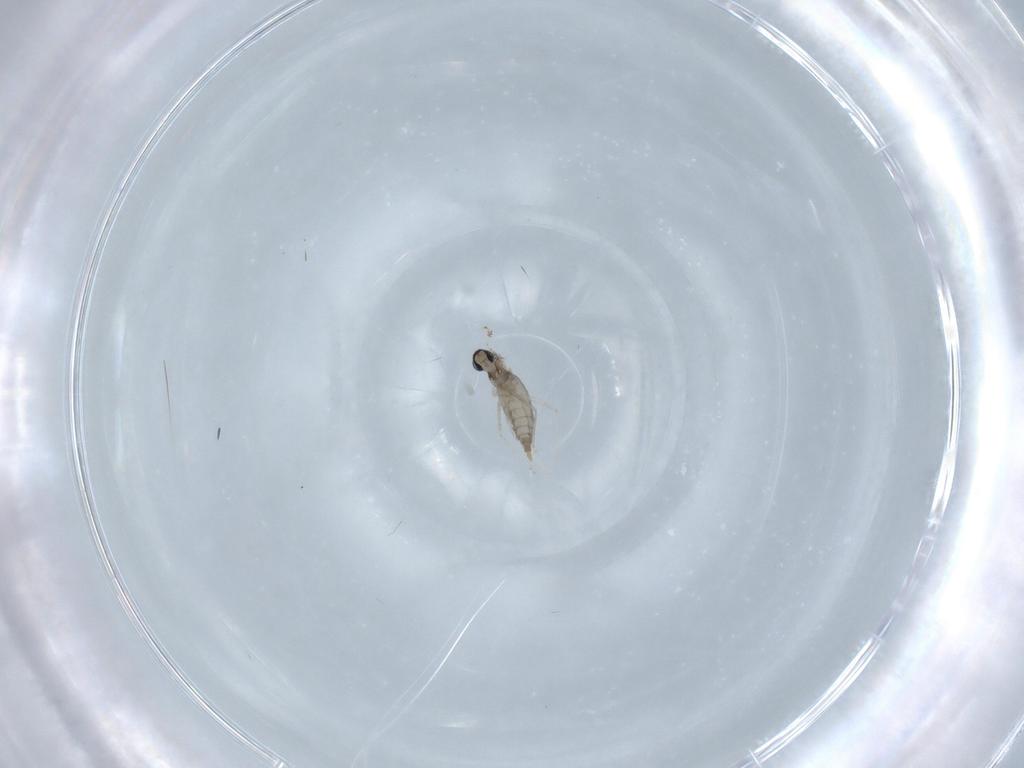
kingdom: Animalia
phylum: Arthropoda
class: Insecta
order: Diptera
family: Sciaridae
